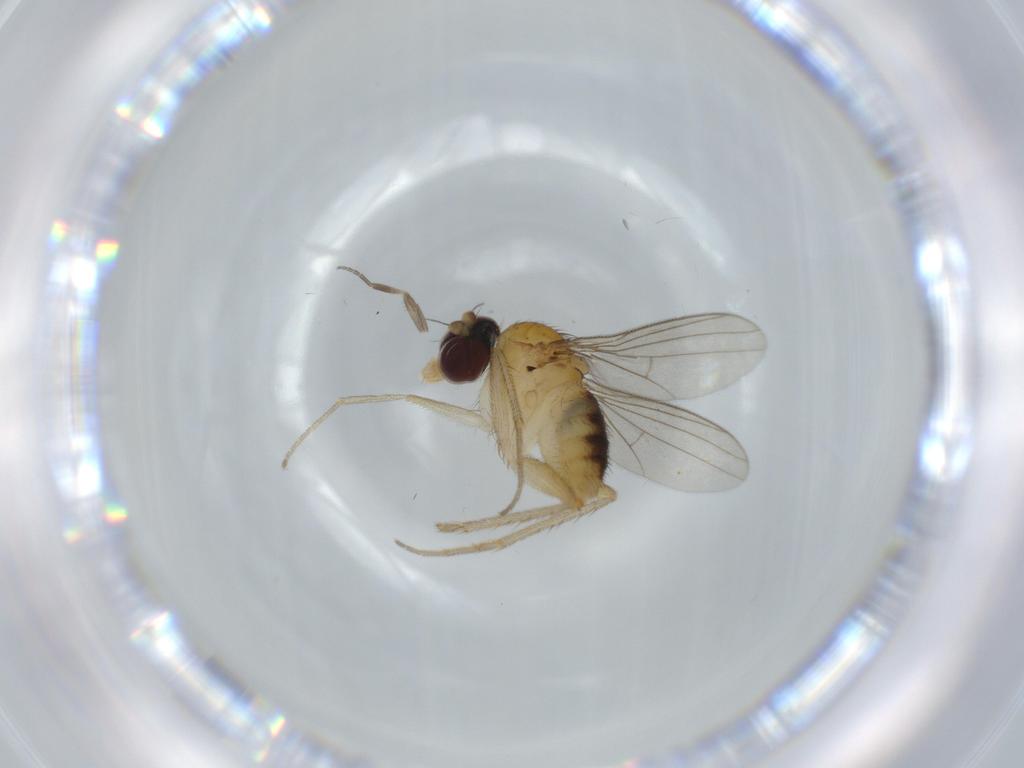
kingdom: Animalia
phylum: Arthropoda
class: Insecta
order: Diptera
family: Dolichopodidae
